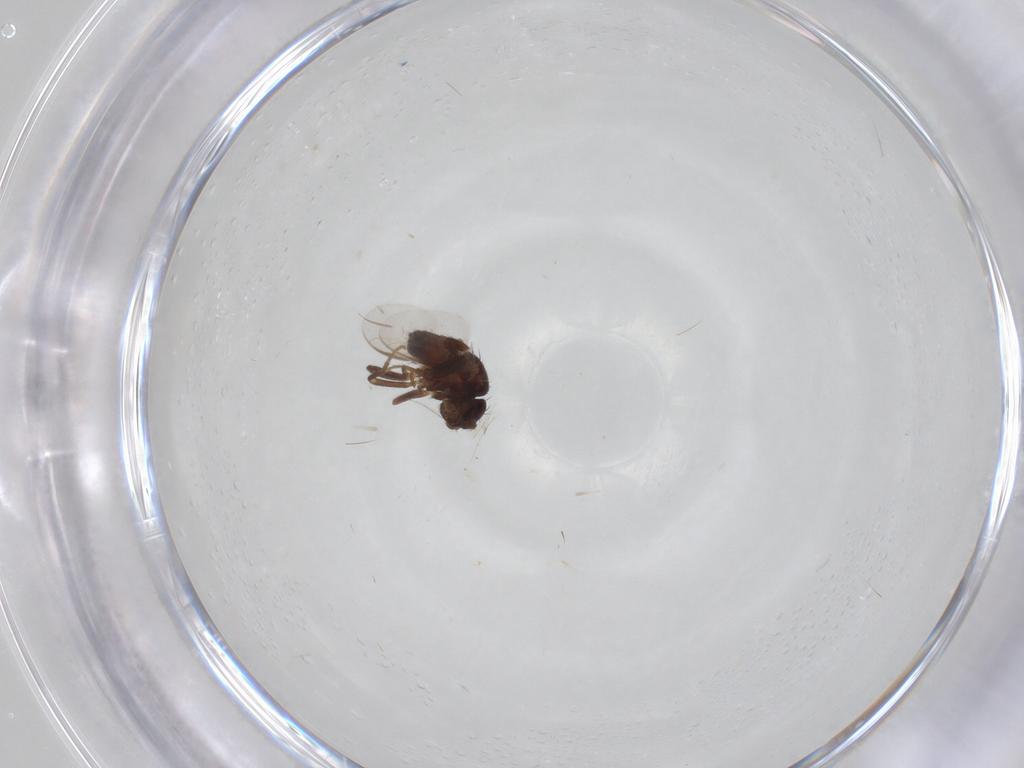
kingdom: Animalia
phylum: Arthropoda
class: Insecta
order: Diptera
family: Sphaeroceridae
